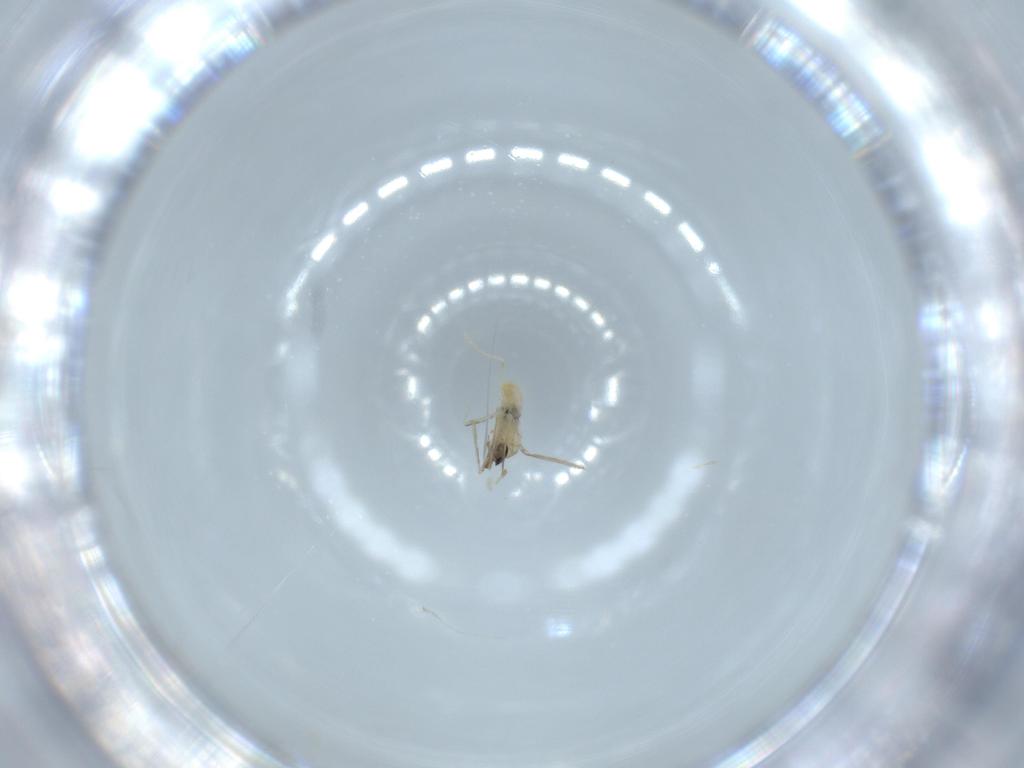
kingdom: Animalia
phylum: Arthropoda
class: Insecta
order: Diptera
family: Cecidomyiidae
